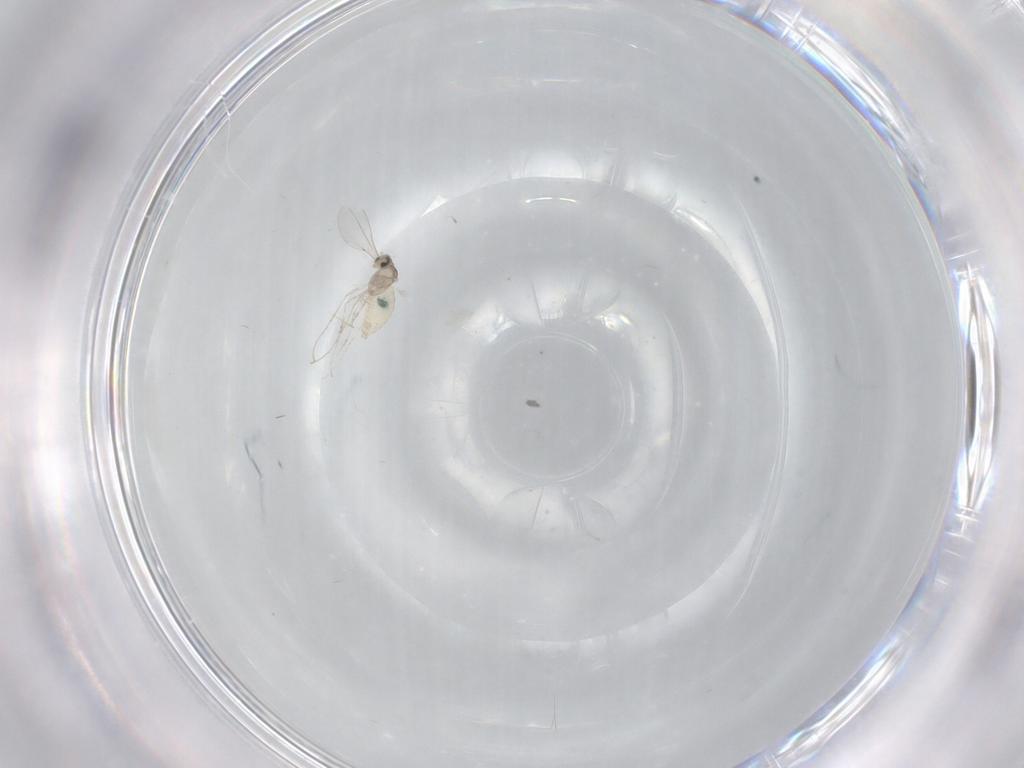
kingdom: Animalia
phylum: Arthropoda
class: Insecta
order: Diptera
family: Cecidomyiidae
